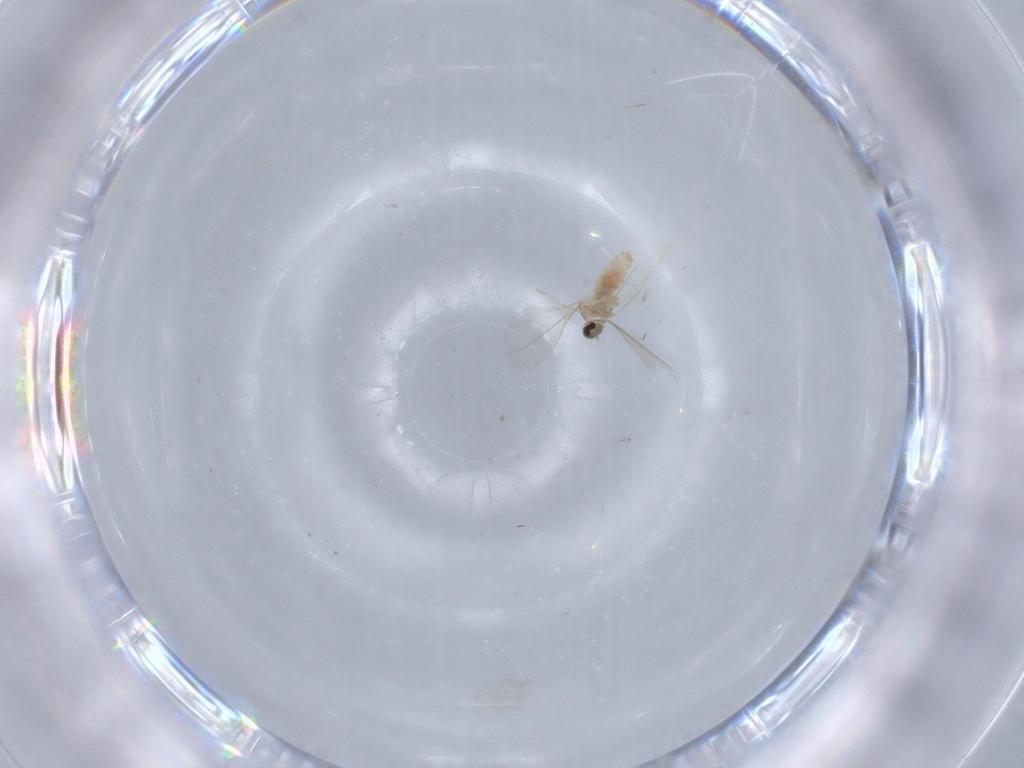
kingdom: Animalia
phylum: Arthropoda
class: Insecta
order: Diptera
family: Cecidomyiidae
